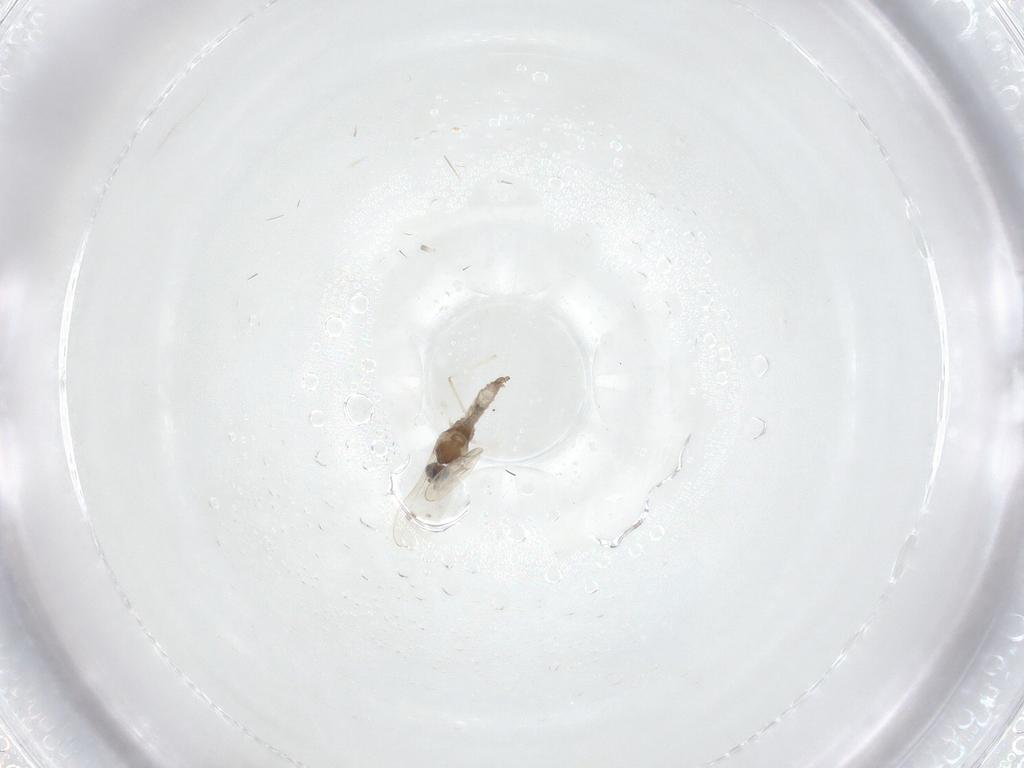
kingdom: Animalia
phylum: Arthropoda
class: Insecta
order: Diptera
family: Cecidomyiidae
